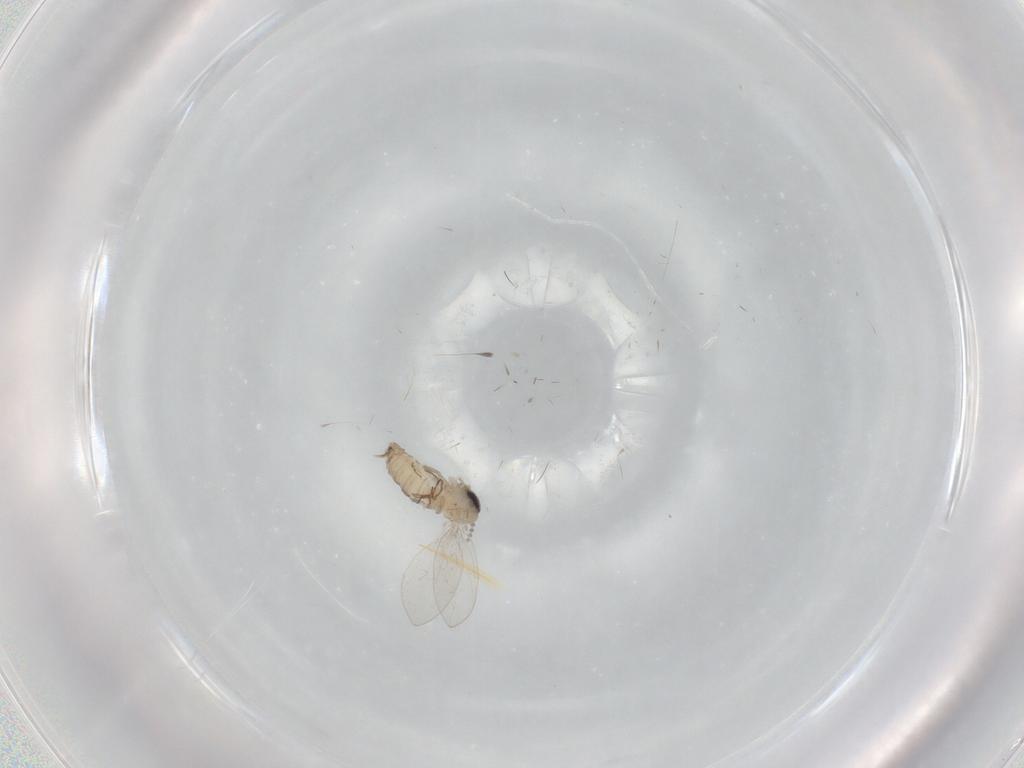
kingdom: Animalia
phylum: Arthropoda
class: Insecta
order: Diptera
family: Psychodidae
